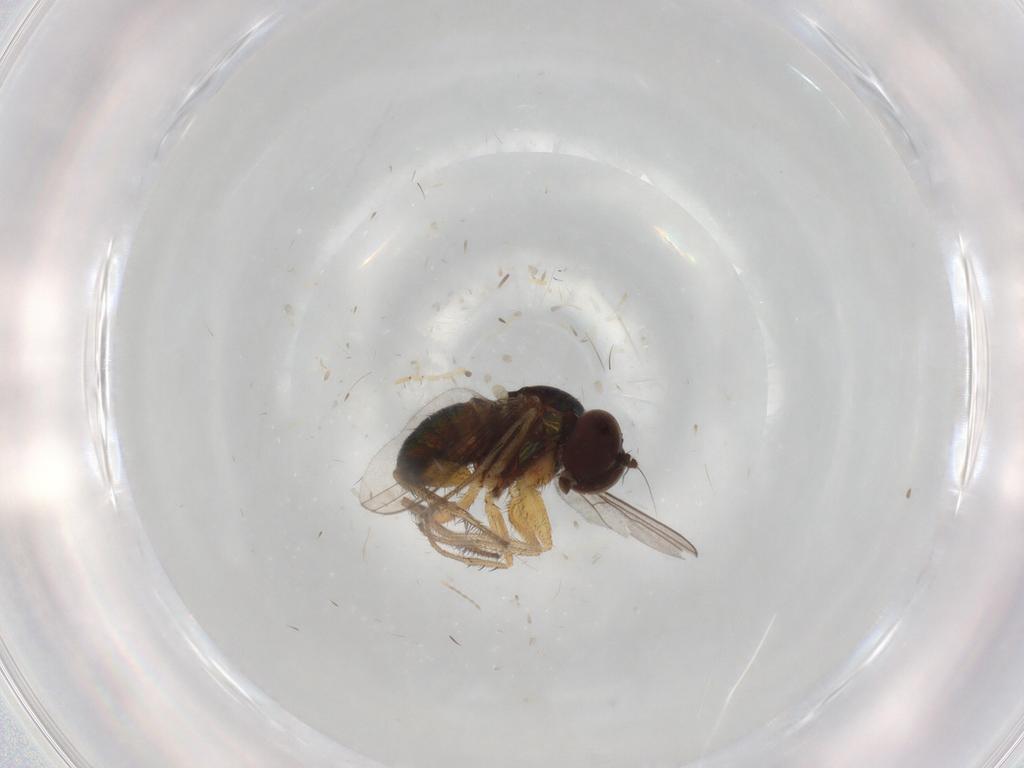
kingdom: Animalia
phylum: Arthropoda
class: Insecta
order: Diptera
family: Cecidomyiidae
